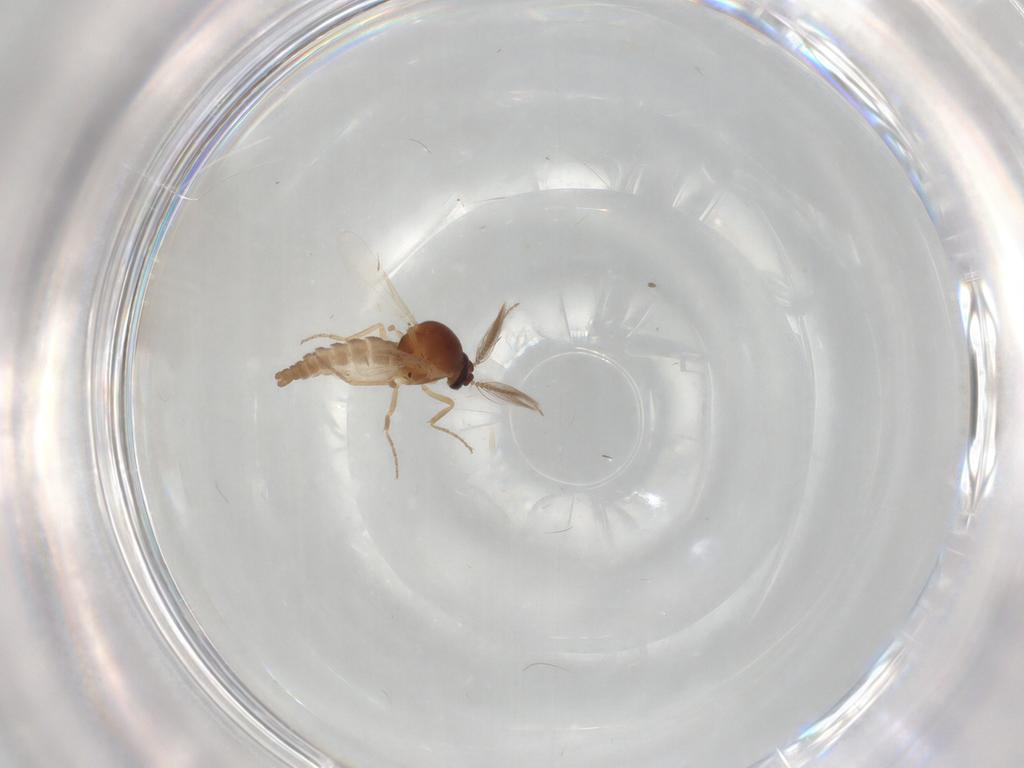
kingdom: Animalia
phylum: Arthropoda
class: Insecta
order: Diptera
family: Ceratopogonidae
